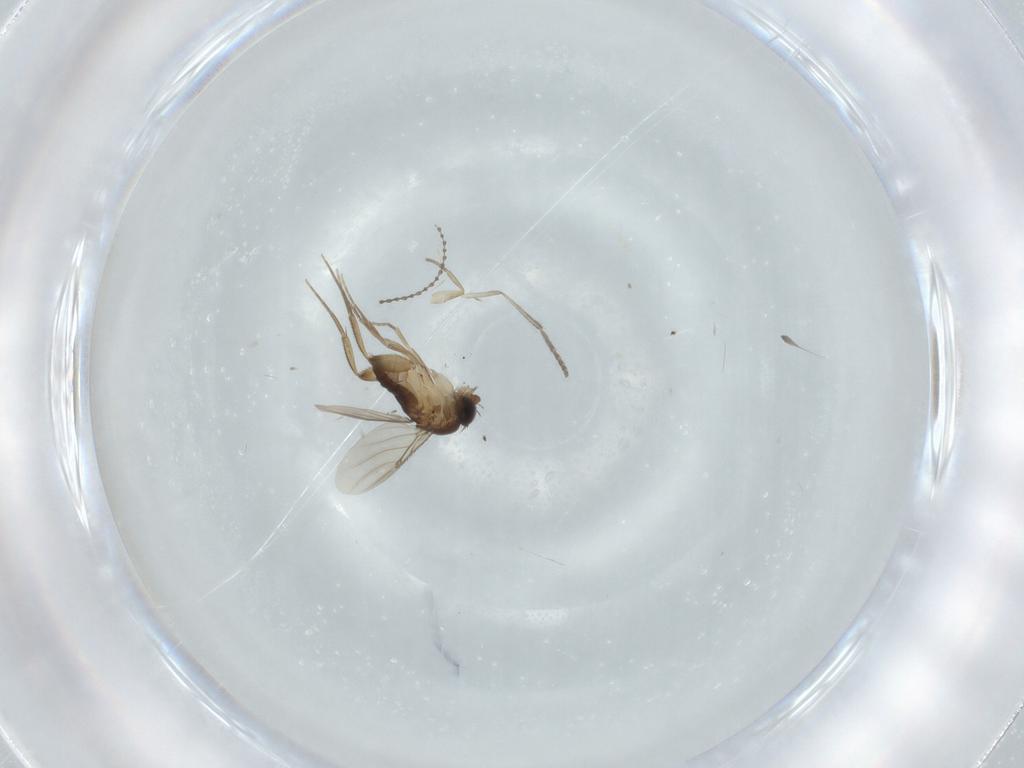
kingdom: Animalia
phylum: Arthropoda
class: Insecta
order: Diptera
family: Phoridae
